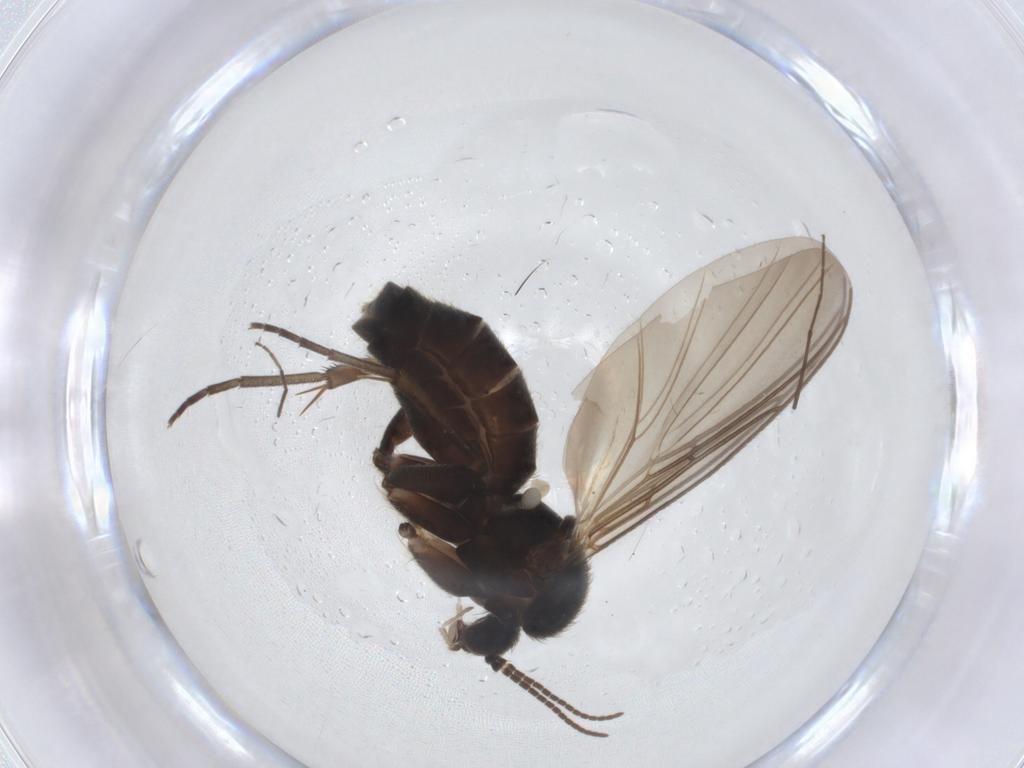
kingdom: Animalia
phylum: Arthropoda
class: Insecta
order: Diptera
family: Mycetophilidae
